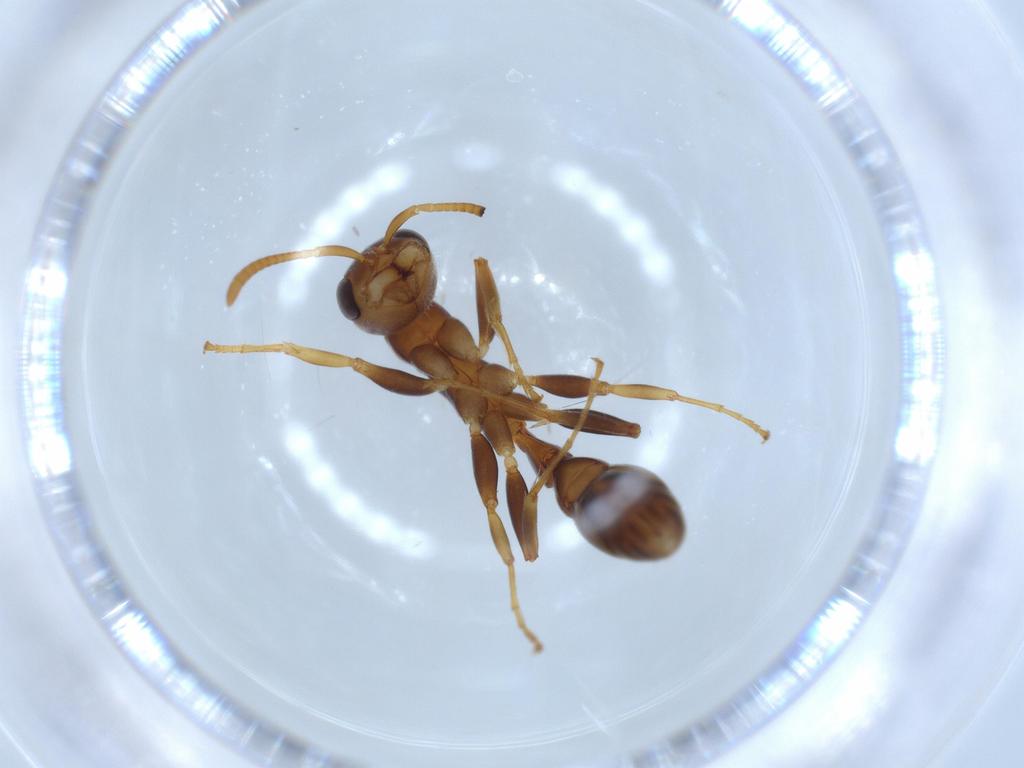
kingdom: Animalia
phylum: Arthropoda
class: Insecta
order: Hymenoptera
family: Formicidae
